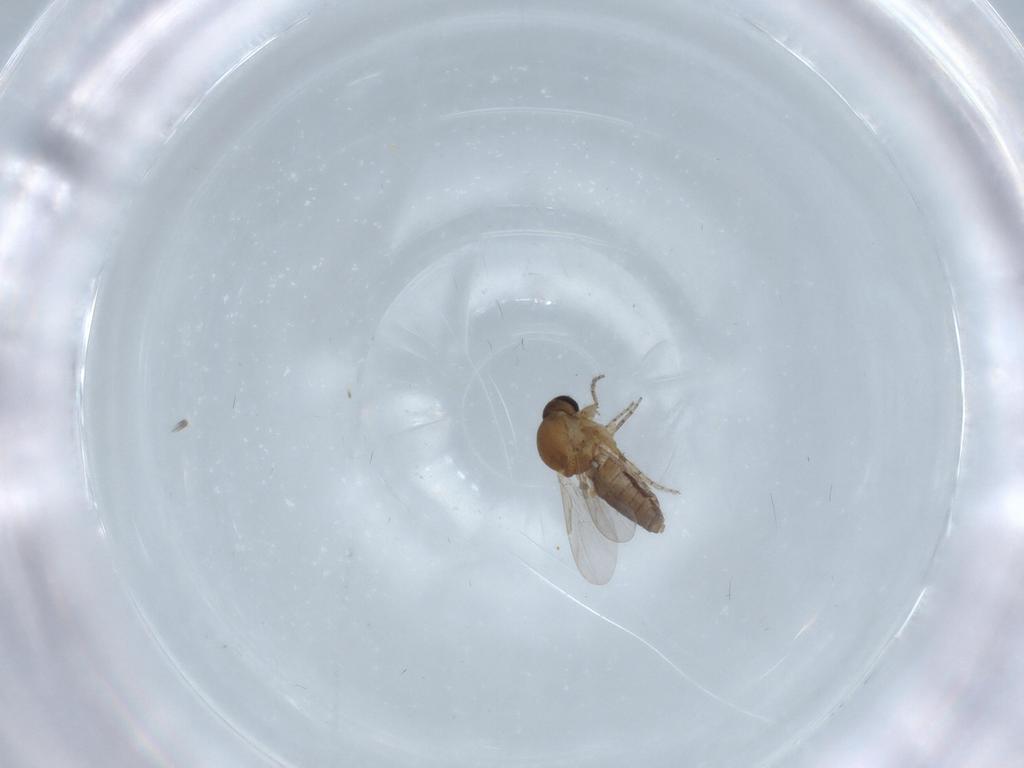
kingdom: Animalia
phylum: Arthropoda
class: Insecta
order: Diptera
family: Ceratopogonidae
